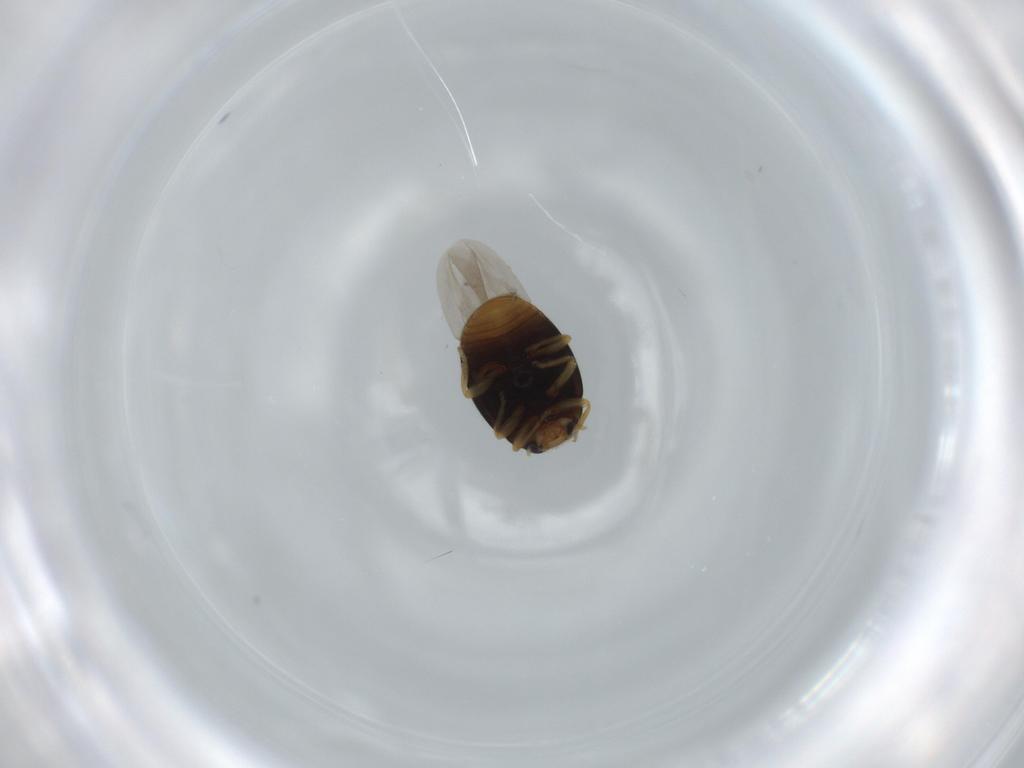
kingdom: Animalia
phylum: Arthropoda
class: Insecta
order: Coleoptera
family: Coccinellidae
